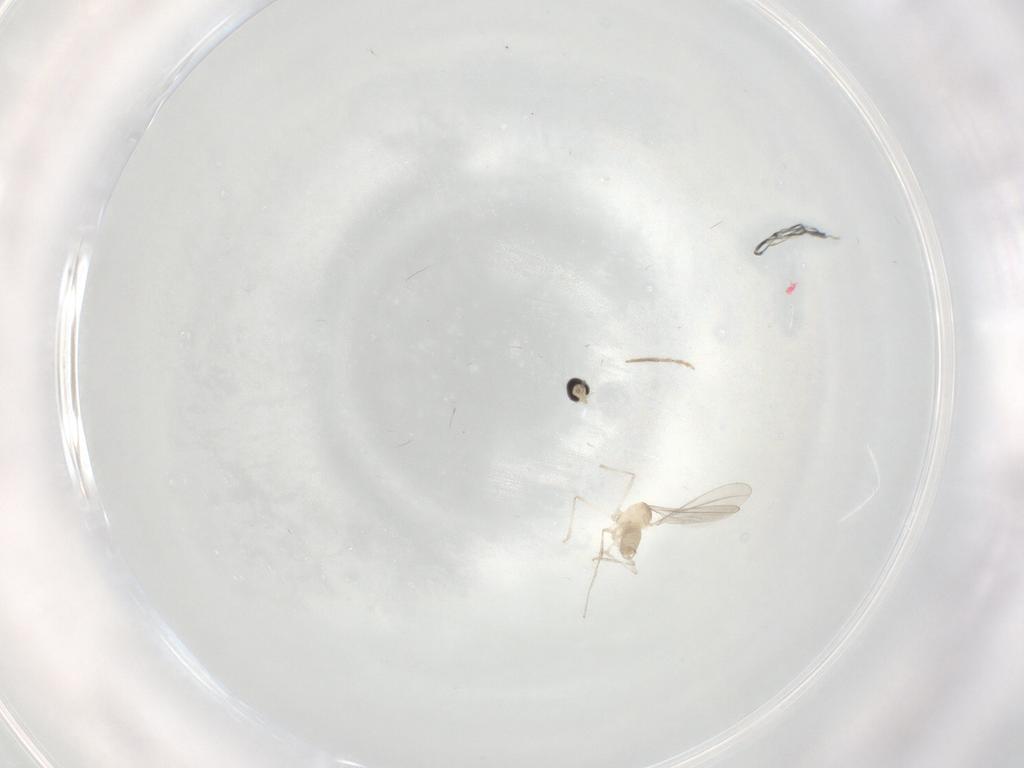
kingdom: Animalia
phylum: Arthropoda
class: Insecta
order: Diptera
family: Cecidomyiidae
